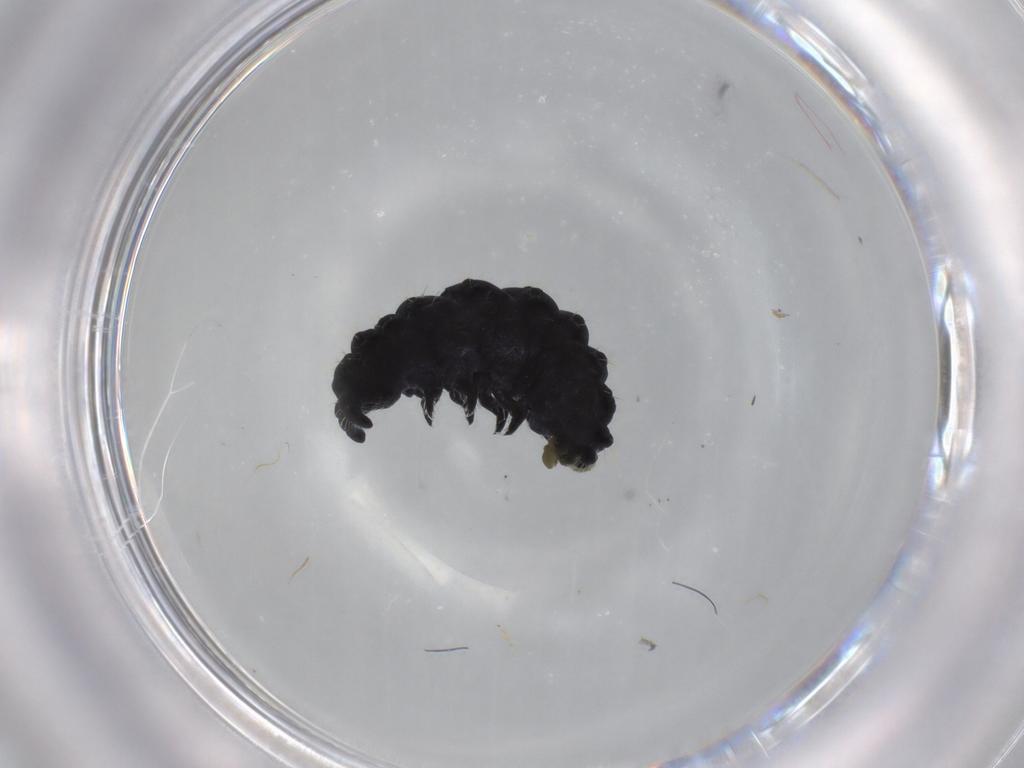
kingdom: Animalia
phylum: Arthropoda
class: Collembola
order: Poduromorpha
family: Neanuridae
